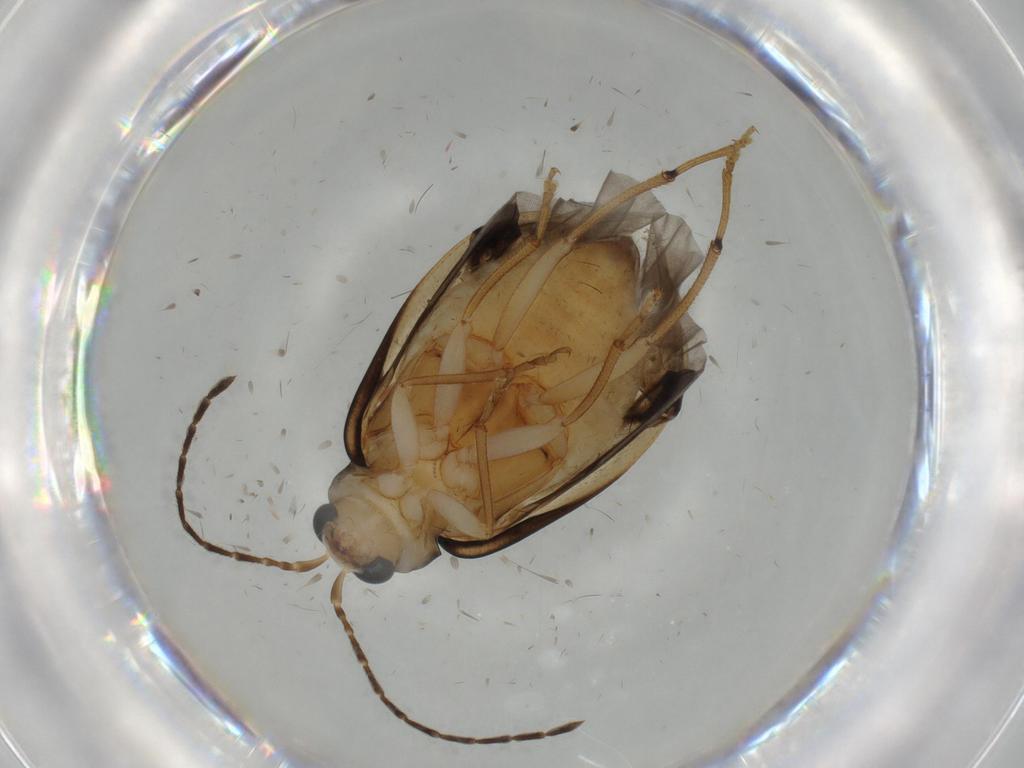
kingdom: Animalia
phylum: Arthropoda
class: Insecta
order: Coleoptera
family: Chrysomelidae
